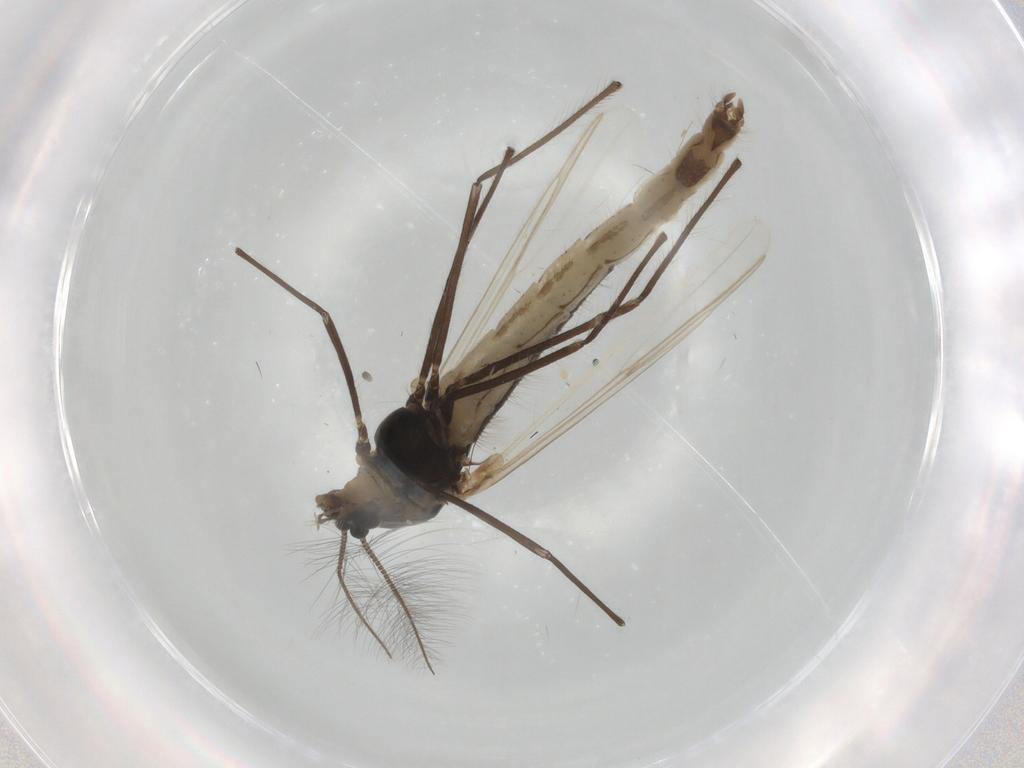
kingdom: Animalia
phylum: Arthropoda
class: Insecta
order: Diptera
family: Chironomidae
